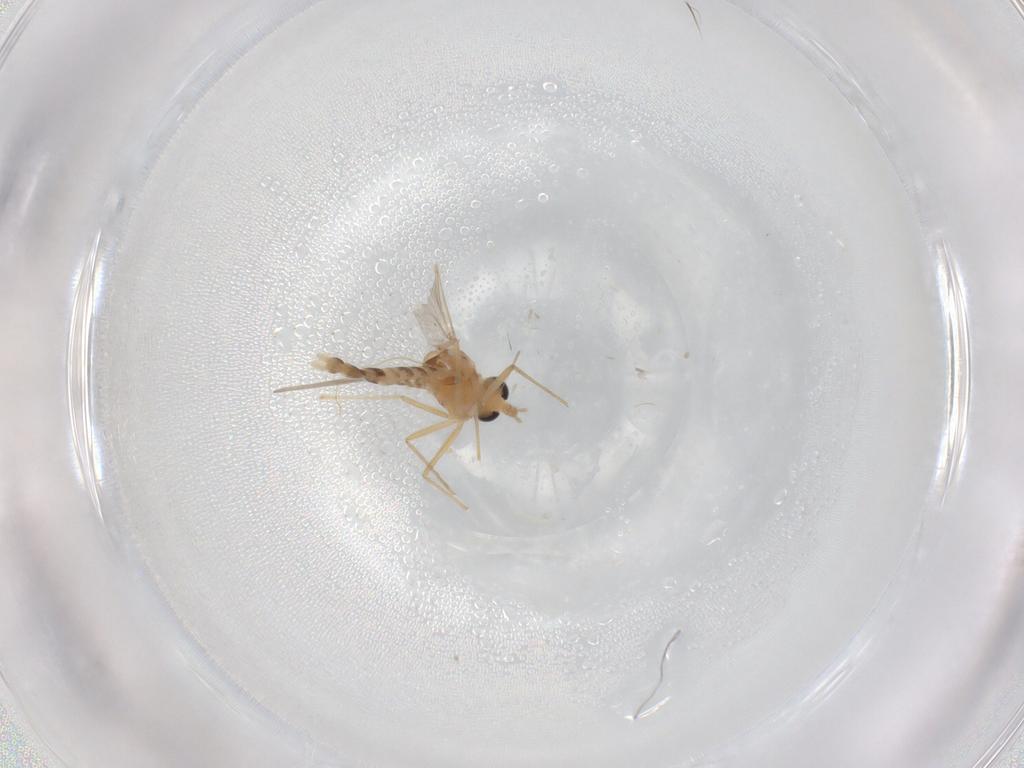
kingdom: Animalia
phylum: Arthropoda
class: Insecta
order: Diptera
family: Chironomidae
